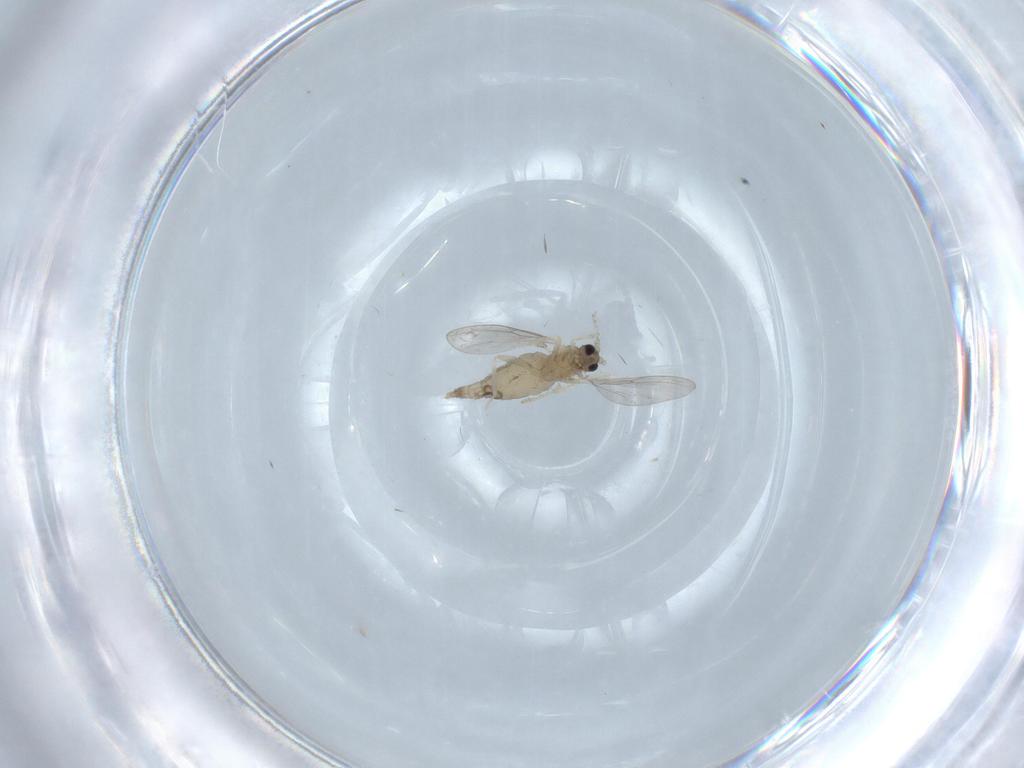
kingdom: Animalia
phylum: Arthropoda
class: Insecta
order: Diptera
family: Cecidomyiidae
